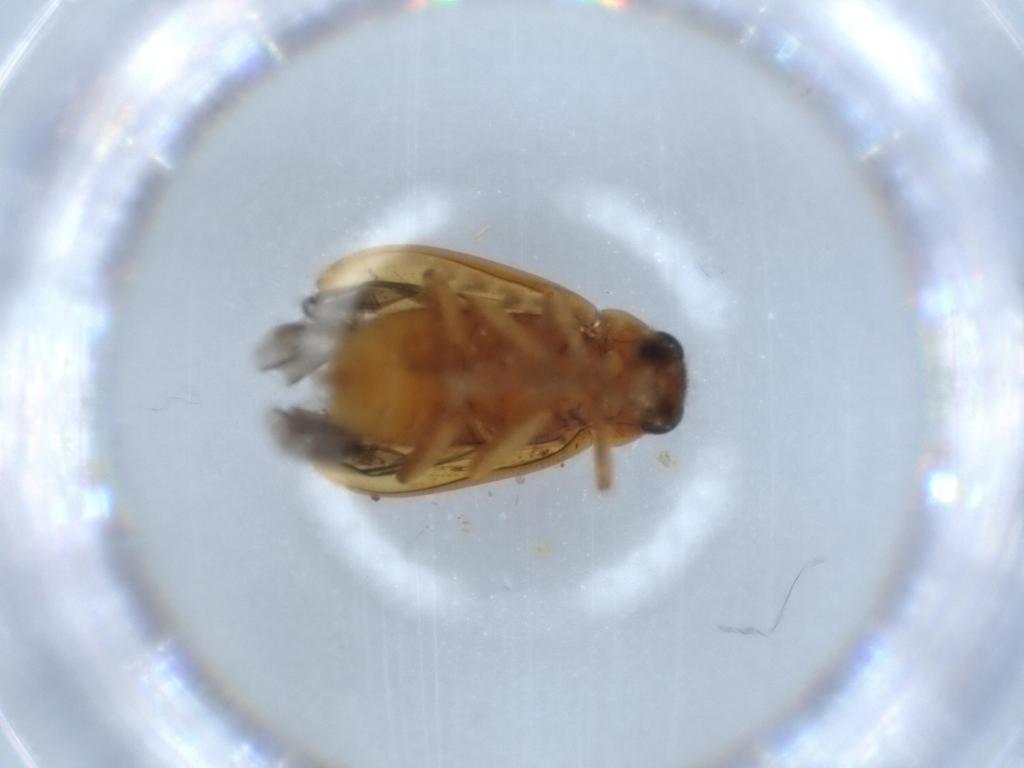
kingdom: Animalia
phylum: Arthropoda
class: Insecta
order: Coleoptera
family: Ptilodactylidae
